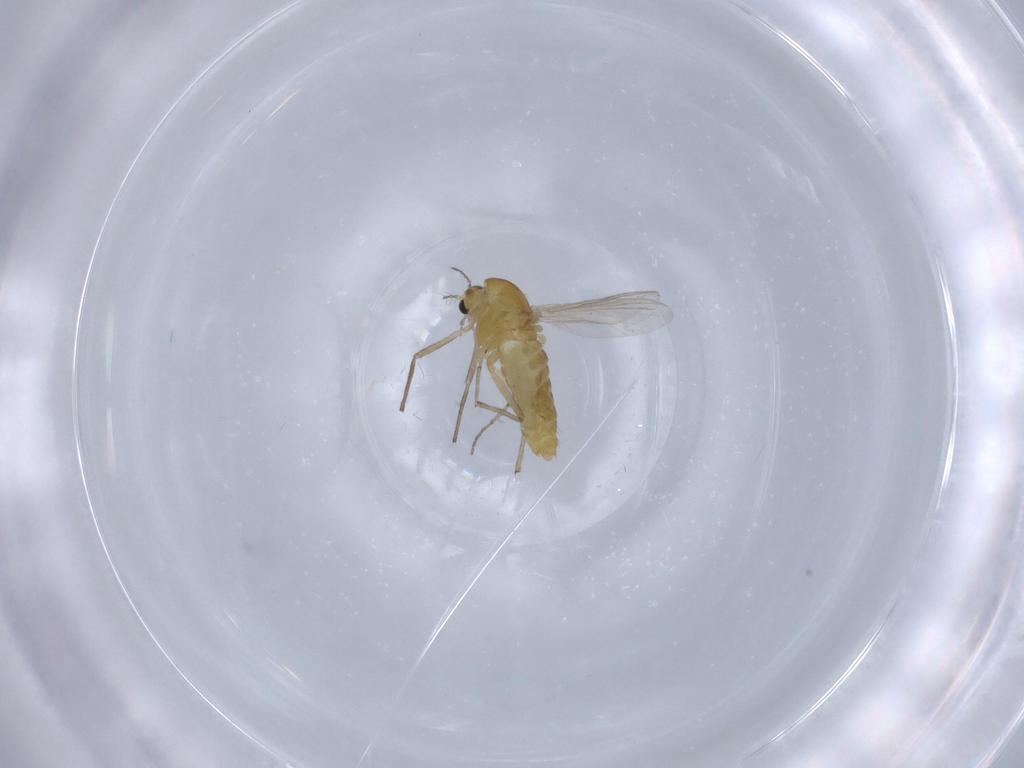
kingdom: Animalia
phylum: Arthropoda
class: Insecta
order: Diptera
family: Chironomidae
